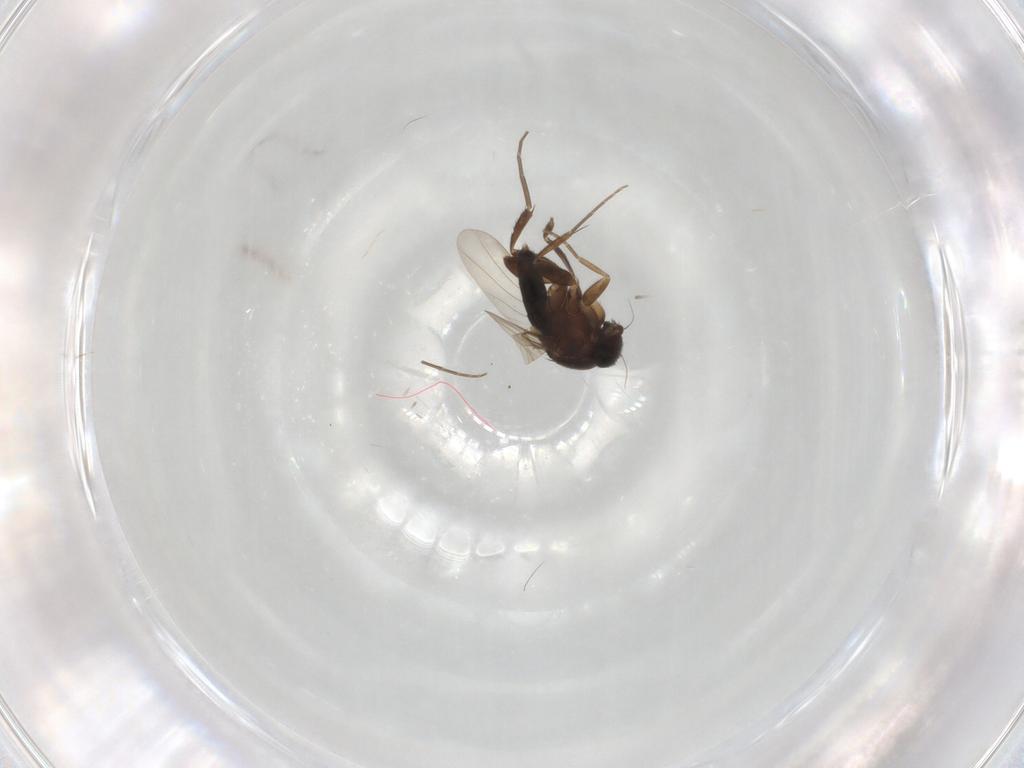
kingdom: Animalia
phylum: Arthropoda
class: Insecta
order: Diptera
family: Phoridae
